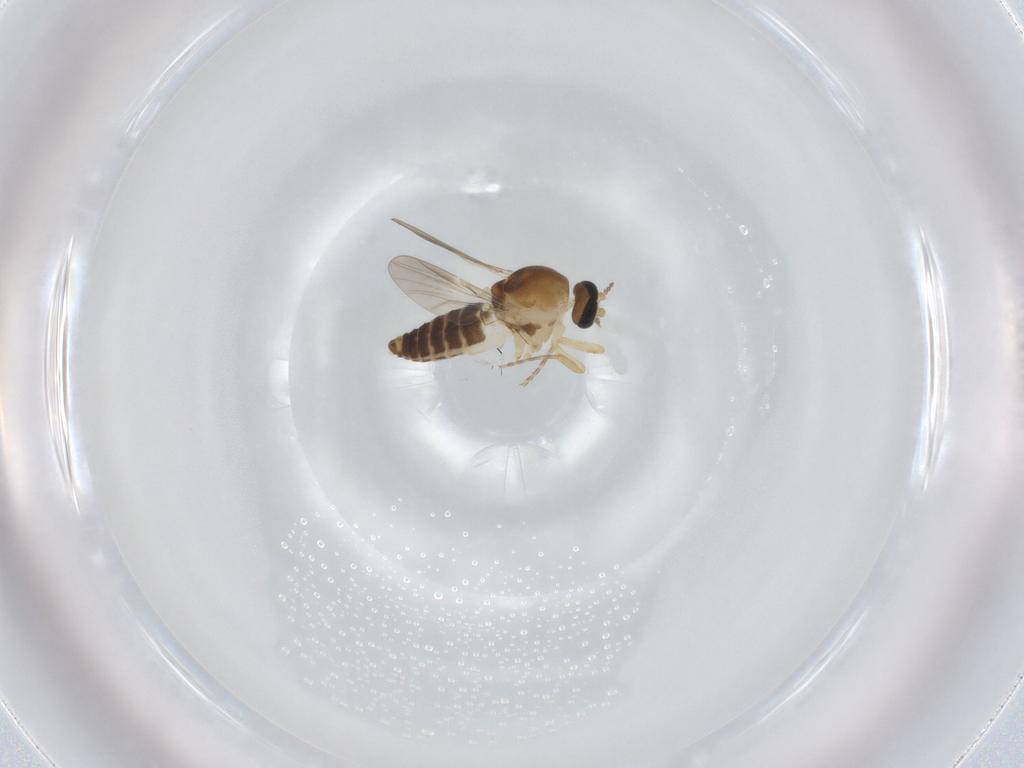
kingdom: Animalia
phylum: Arthropoda
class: Insecta
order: Diptera
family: Ceratopogonidae
